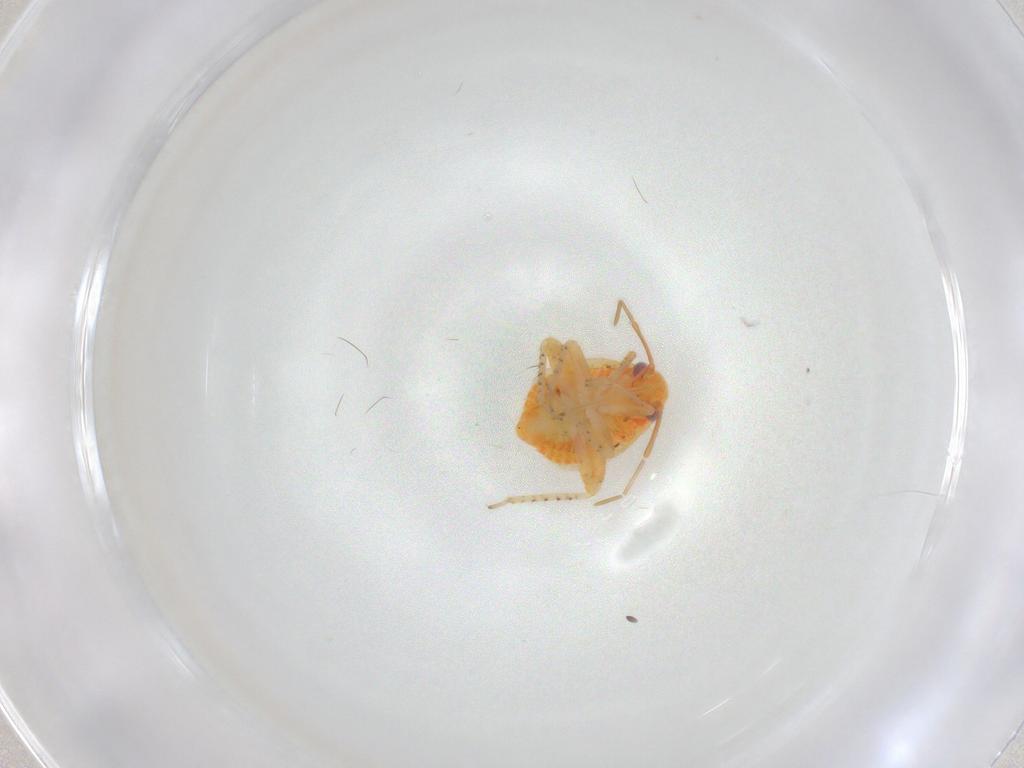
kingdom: Animalia
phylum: Arthropoda
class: Insecta
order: Hemiptera
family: Miridae
